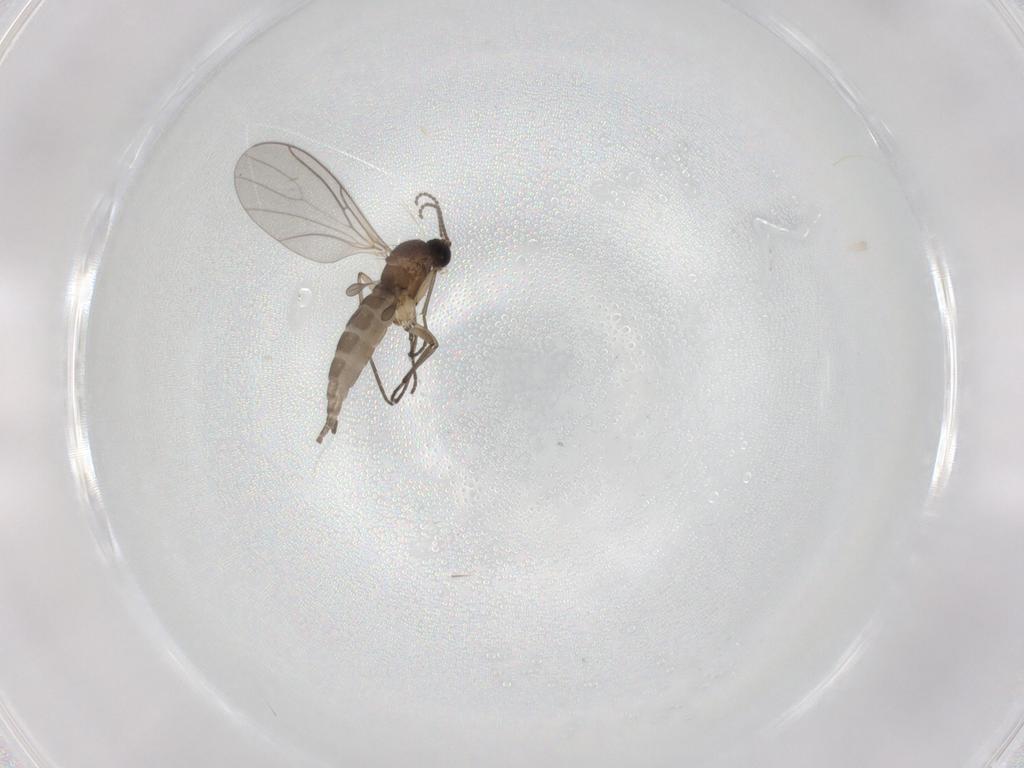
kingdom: Animalia
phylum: Arthropoda
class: Insecta
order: Diptera
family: Sciaridae
